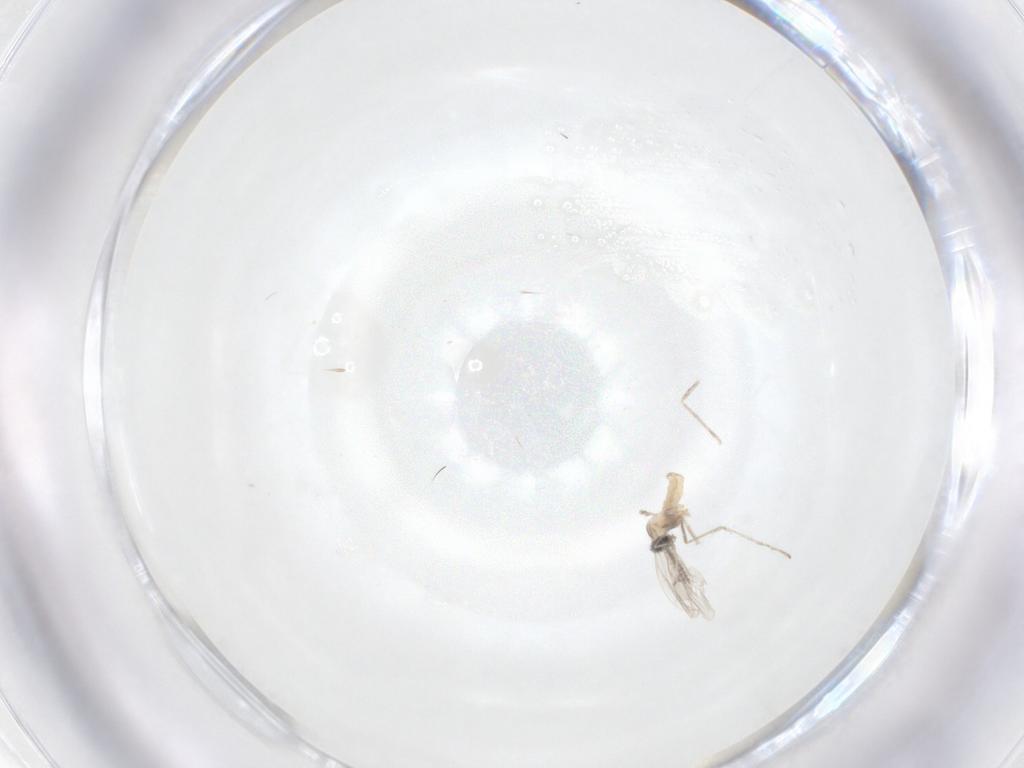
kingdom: Animalia
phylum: Arthropoda
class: Insecta
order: Diptera
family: Cecidomyiidae
